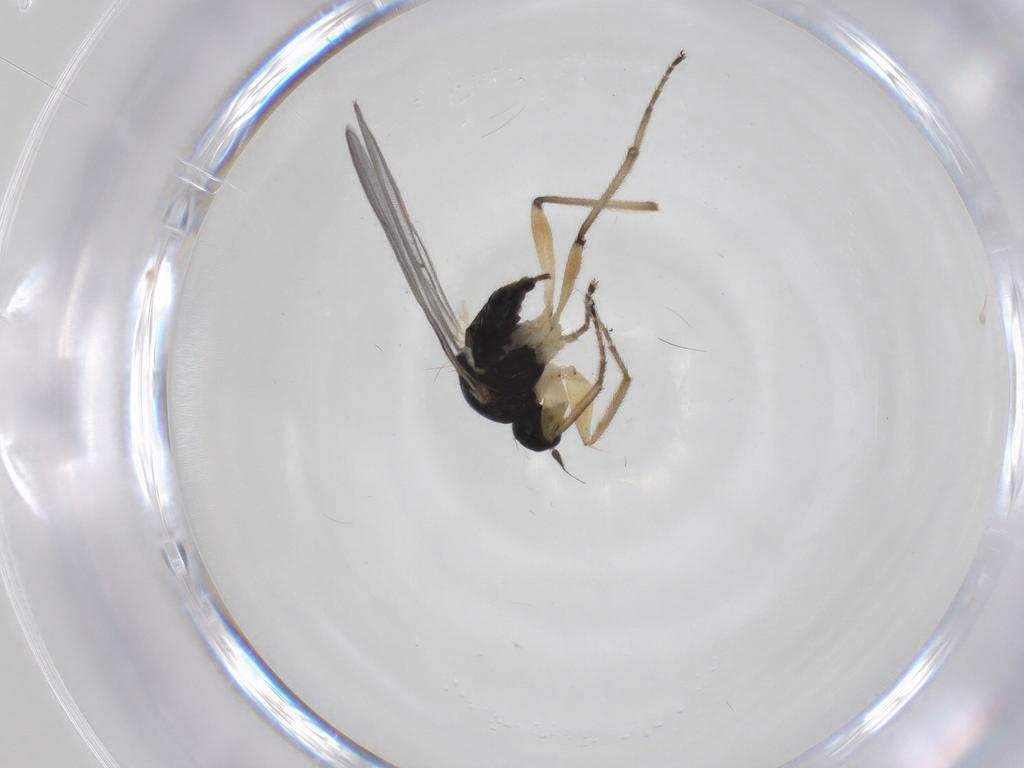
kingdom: Animalia
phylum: Arthropoda
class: Insecta
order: Diptera
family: Hybotidae
